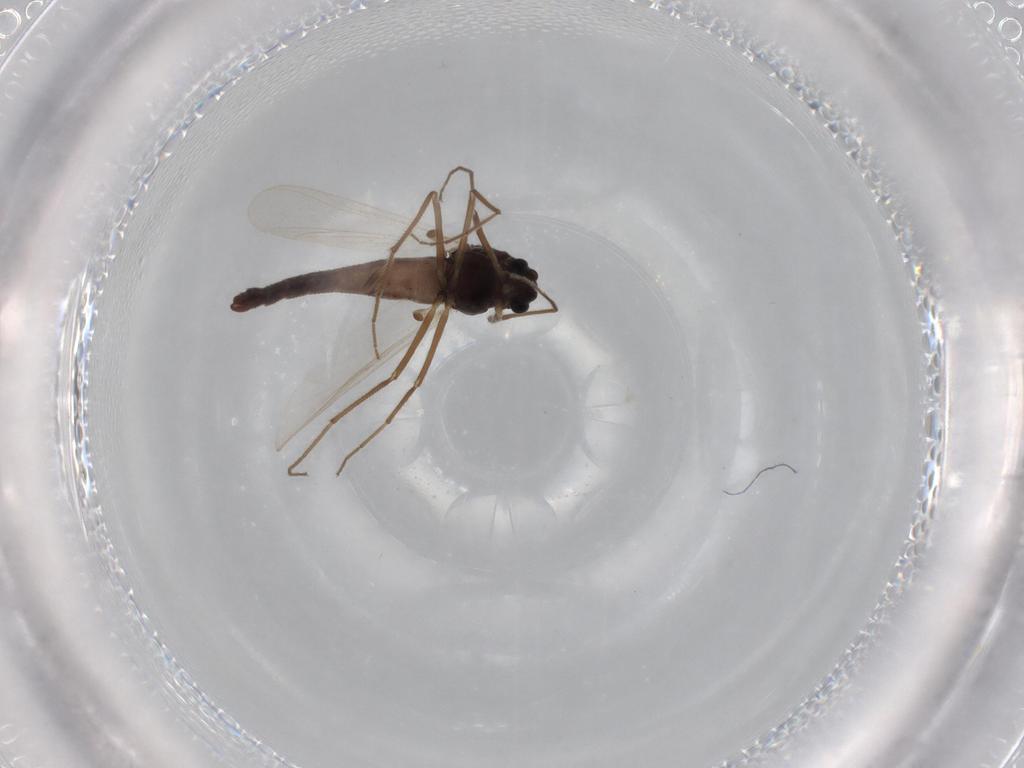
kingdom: Animalia
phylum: Arthropoda
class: Insecta
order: Diptera
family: Chironomidae
